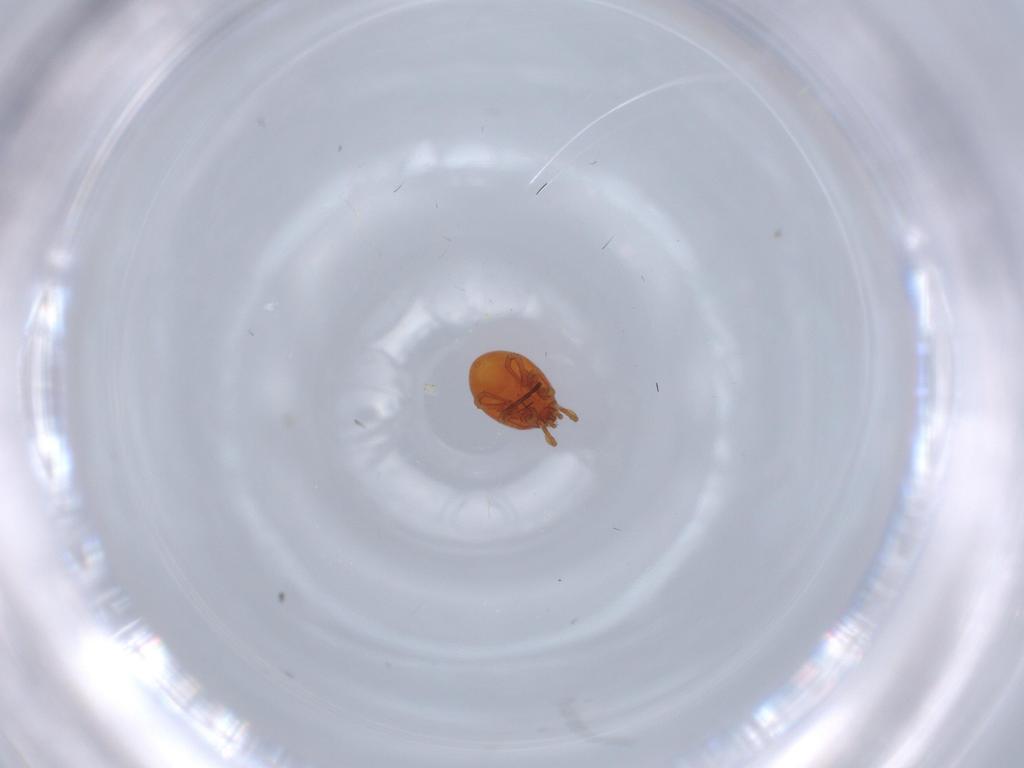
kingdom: Animalia
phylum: Arthropoda
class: Arachnida
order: Mesostigmata
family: Parasitidae
